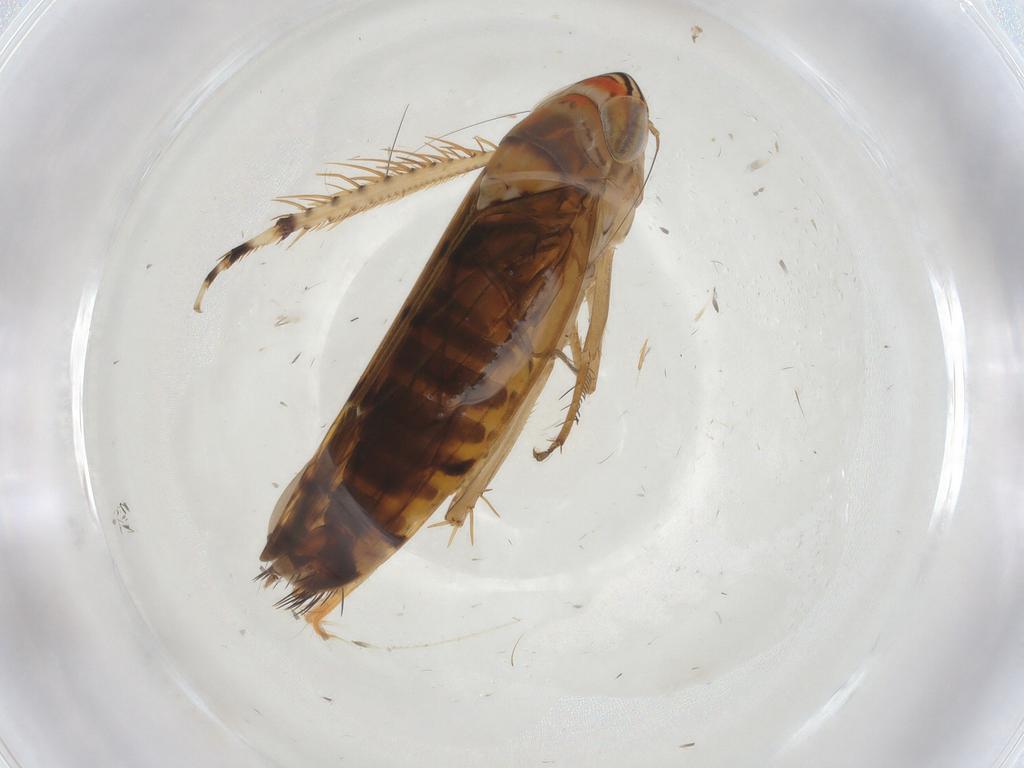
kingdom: Animalia
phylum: Arthropoda
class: Insecta
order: Hemiptera
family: Cicadellidae
